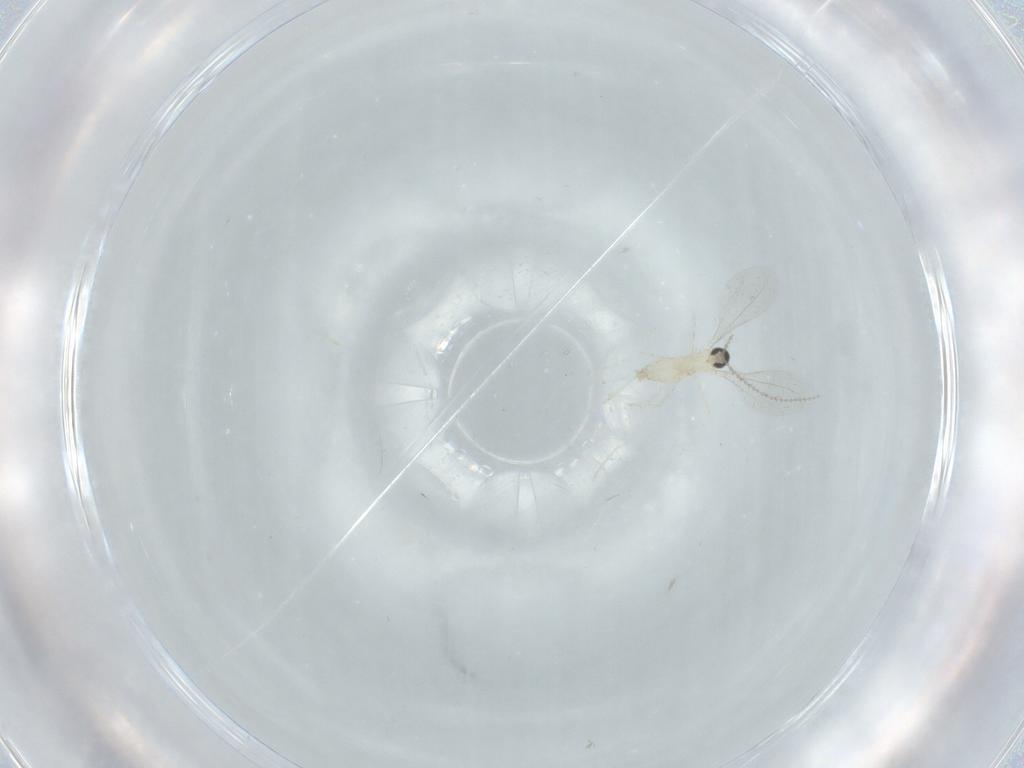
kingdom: Animalia
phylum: Arthropoda
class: Insecta
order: Diptera
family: Cecidomyiidae
